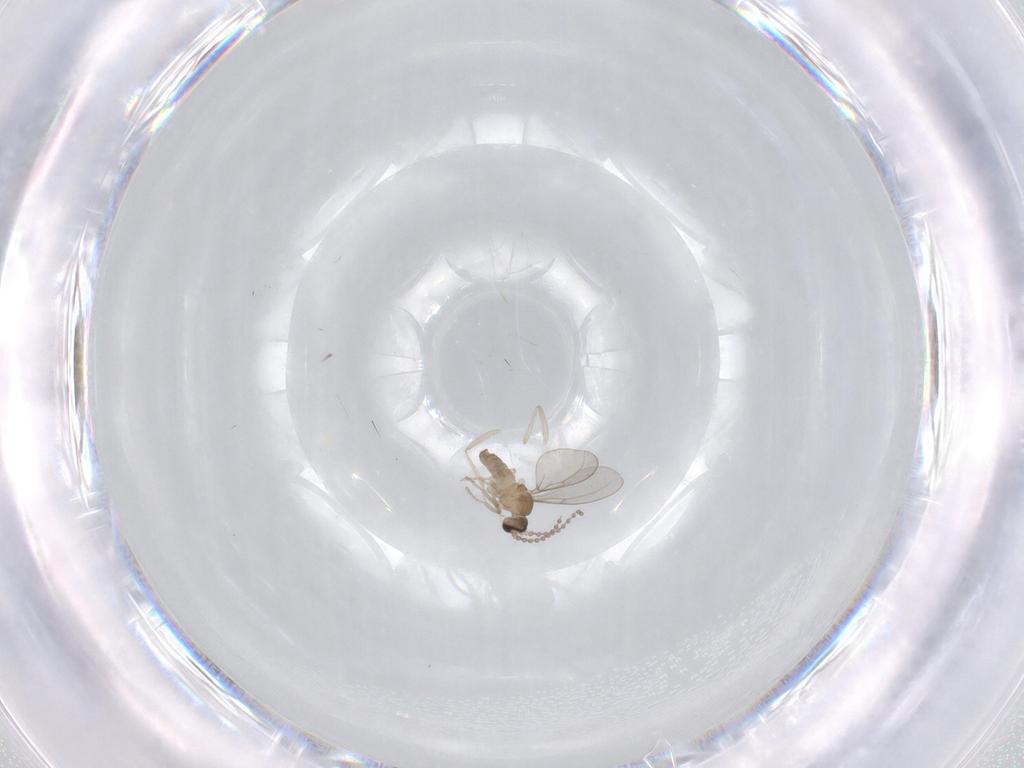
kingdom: Animalia
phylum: Arthropoda
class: Insecta
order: Diptera
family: Cecidomyiidae
